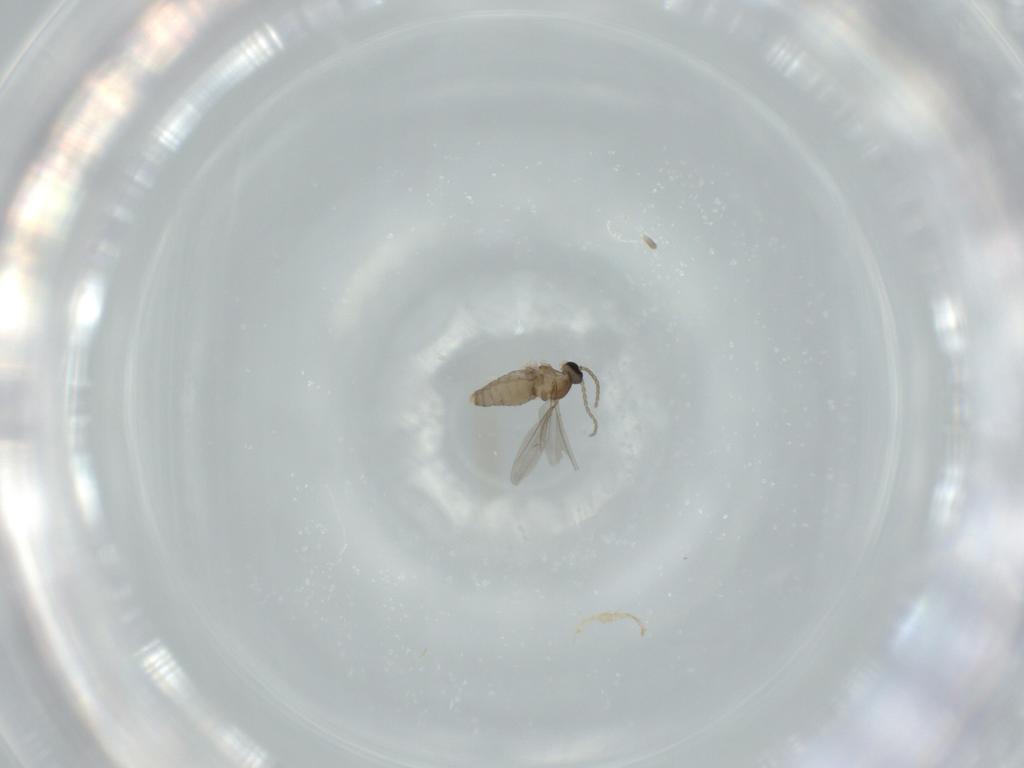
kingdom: Animalia
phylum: Arthropoda
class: Insecta
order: Diptera
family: Cecidomyiidae
